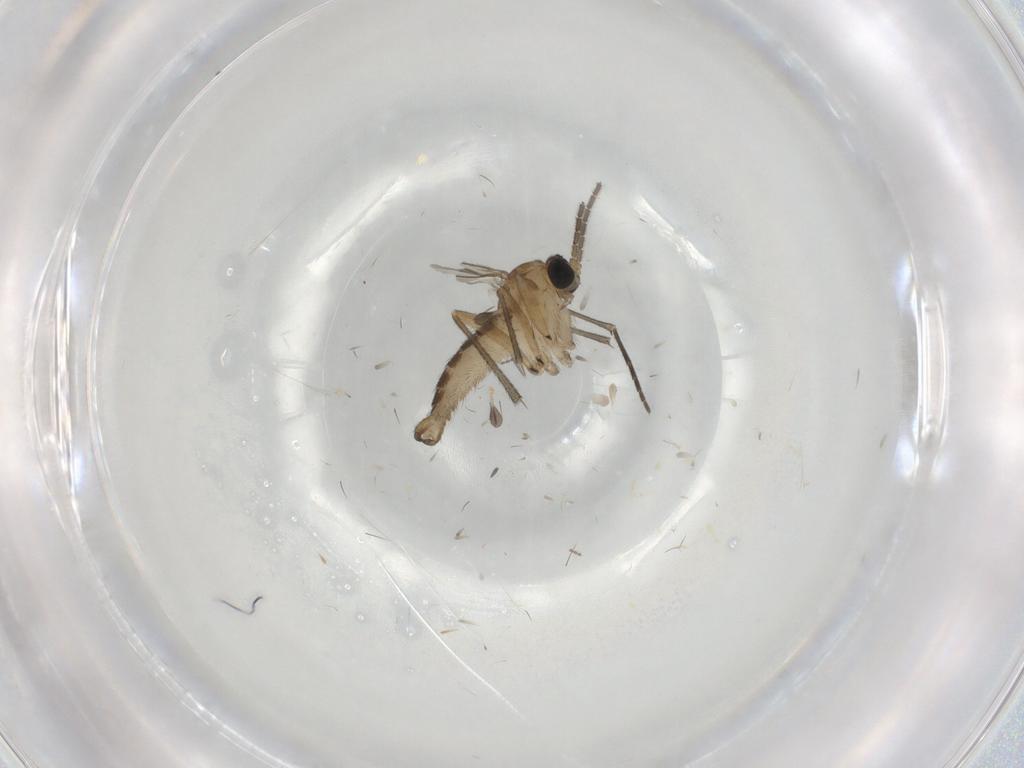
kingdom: Animalia
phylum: Arthropoda
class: Insecta
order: Diptera
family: Sciaridae
